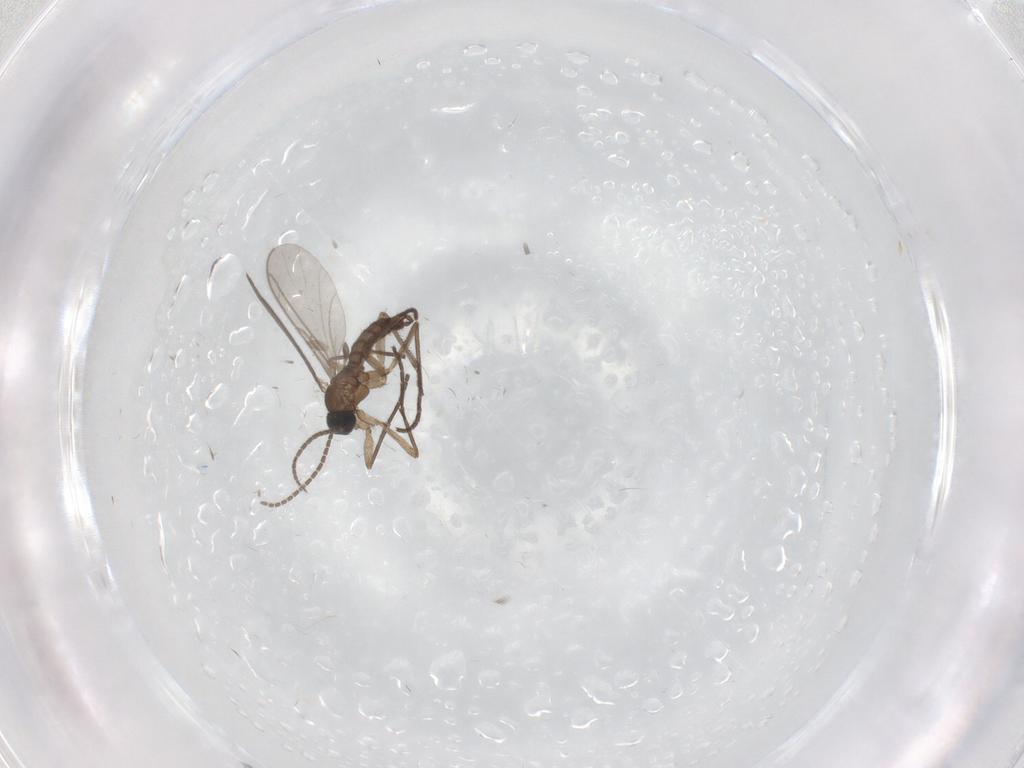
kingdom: Animalia
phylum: Arthropoda
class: Insecta
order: Diptera
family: Sciaridae
